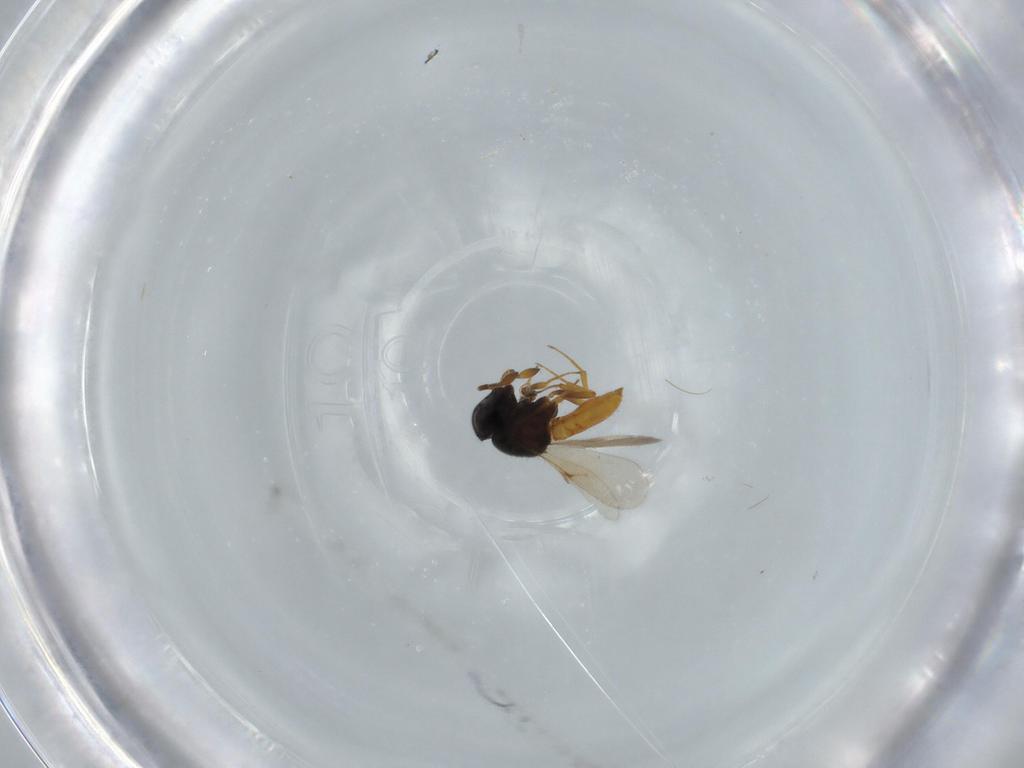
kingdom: Animalia
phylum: Arthropoda
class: Insecta
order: Hymenoptera
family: Scelionidae
